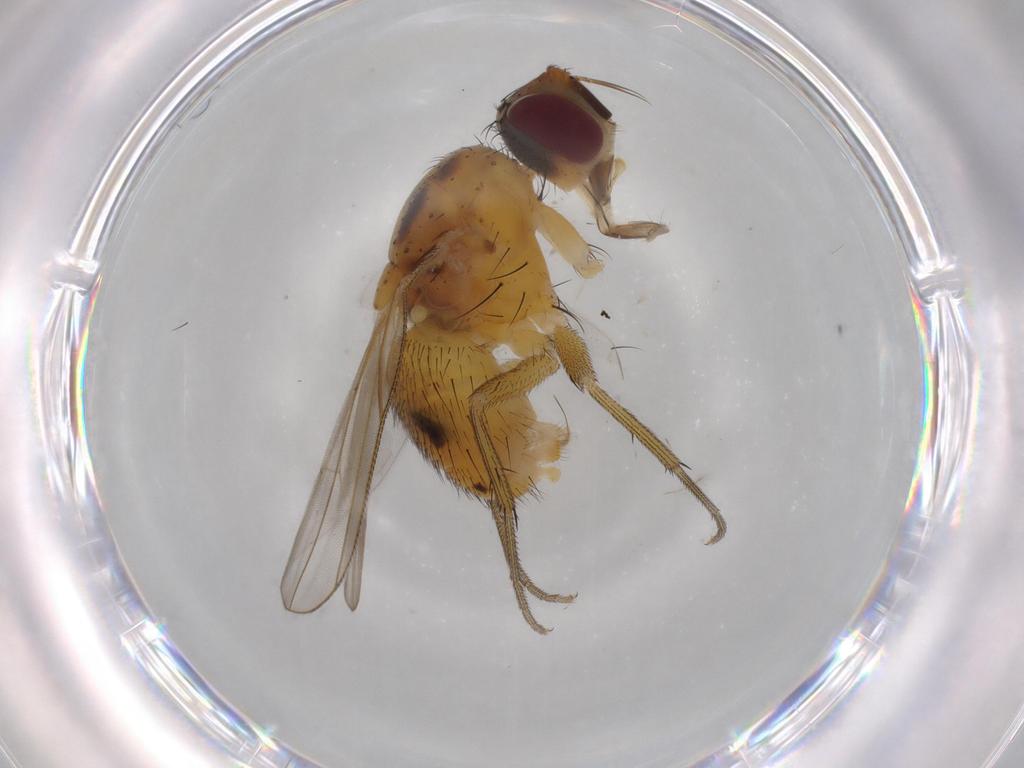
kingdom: Animalia
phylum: Arthropoda
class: Insecta
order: Diptera
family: Muscidae
